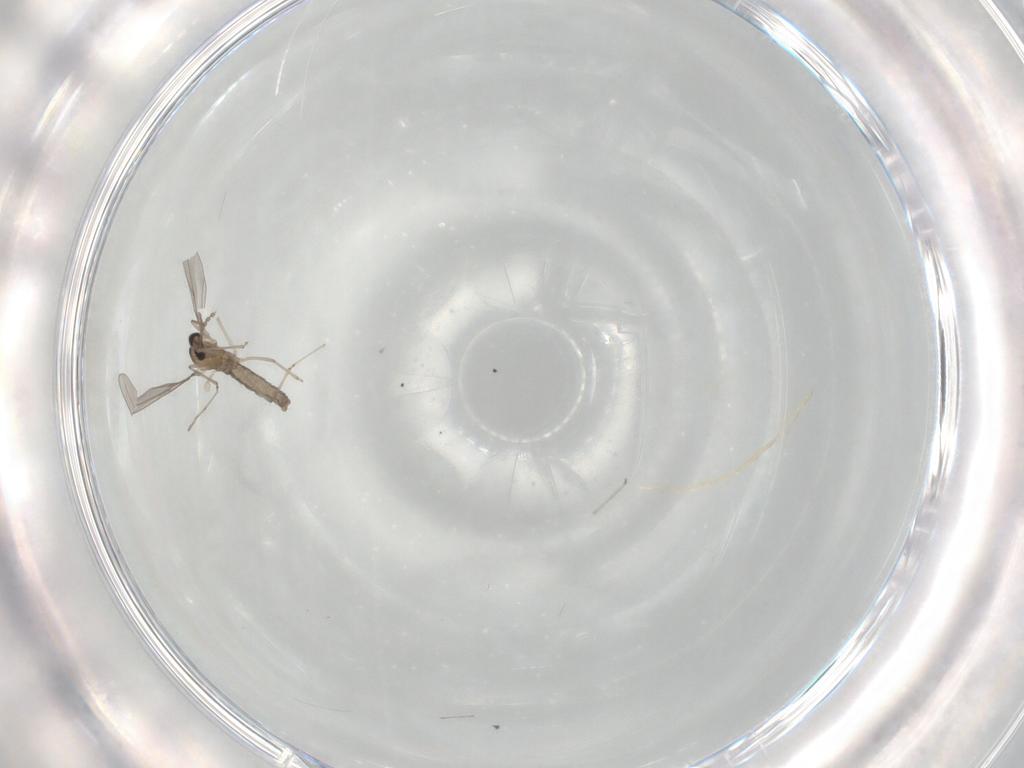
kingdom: Animalia
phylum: Arthropoda
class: Insecta
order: Diptera
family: Cecidomyiidae
